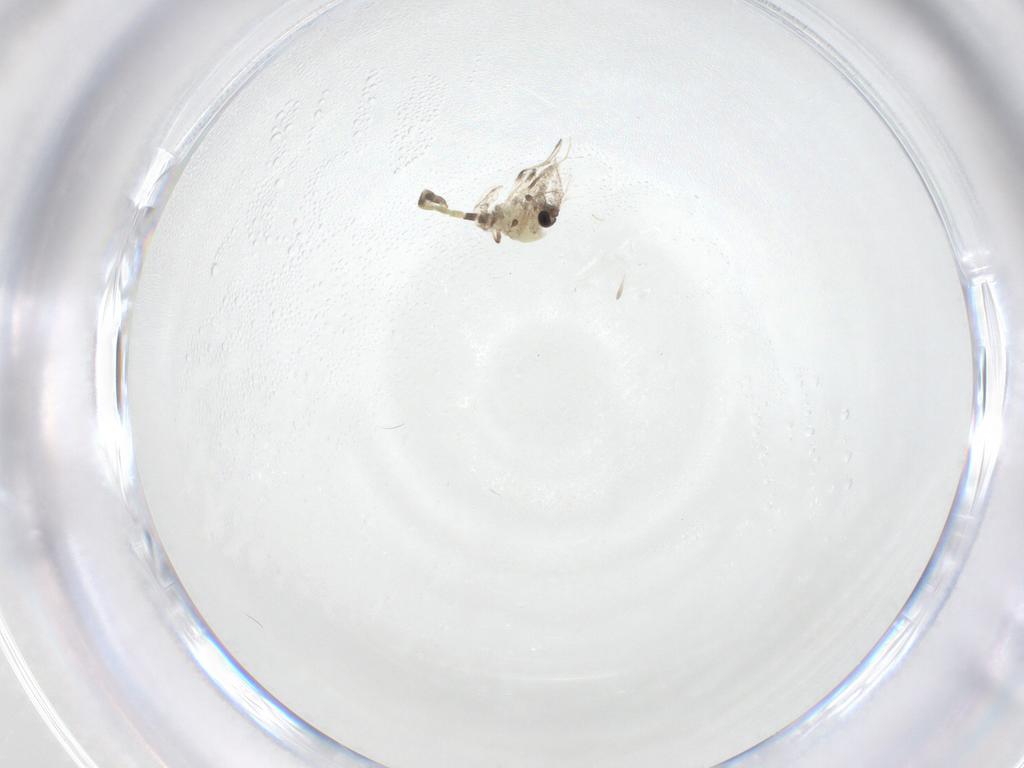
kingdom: Animalia
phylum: Arthropoda
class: Insecta
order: Diptera
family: Chironomidae
